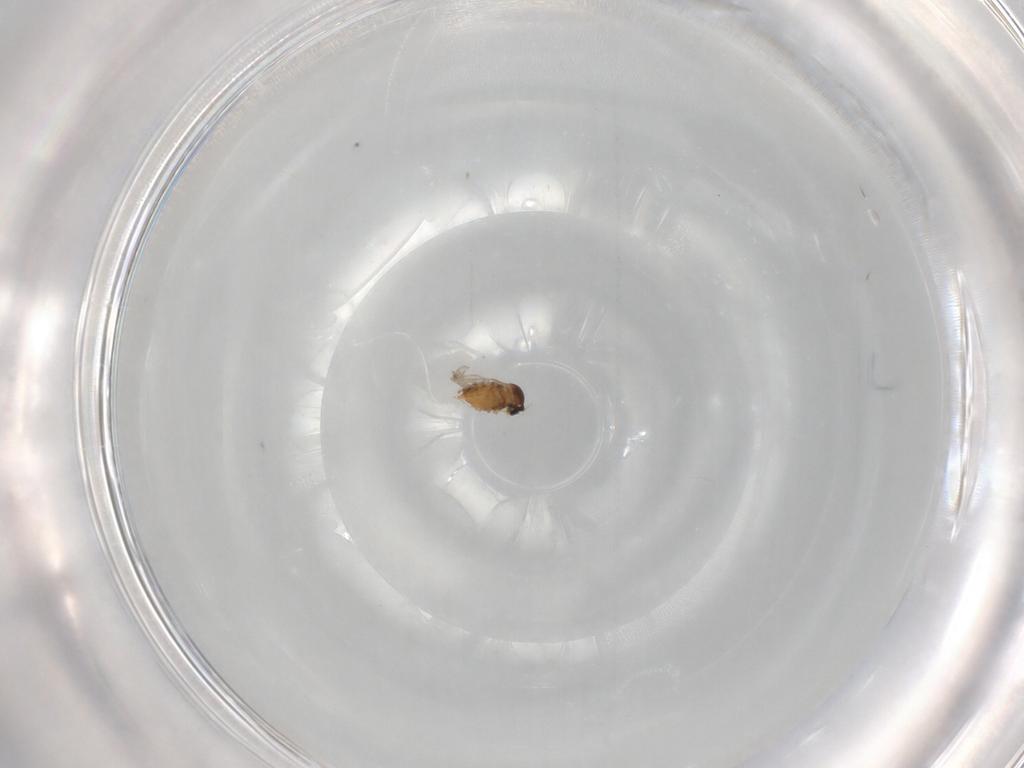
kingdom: Animalia
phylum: Arthropoda
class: Insecta
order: Diptera
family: Cecidomyiidae
